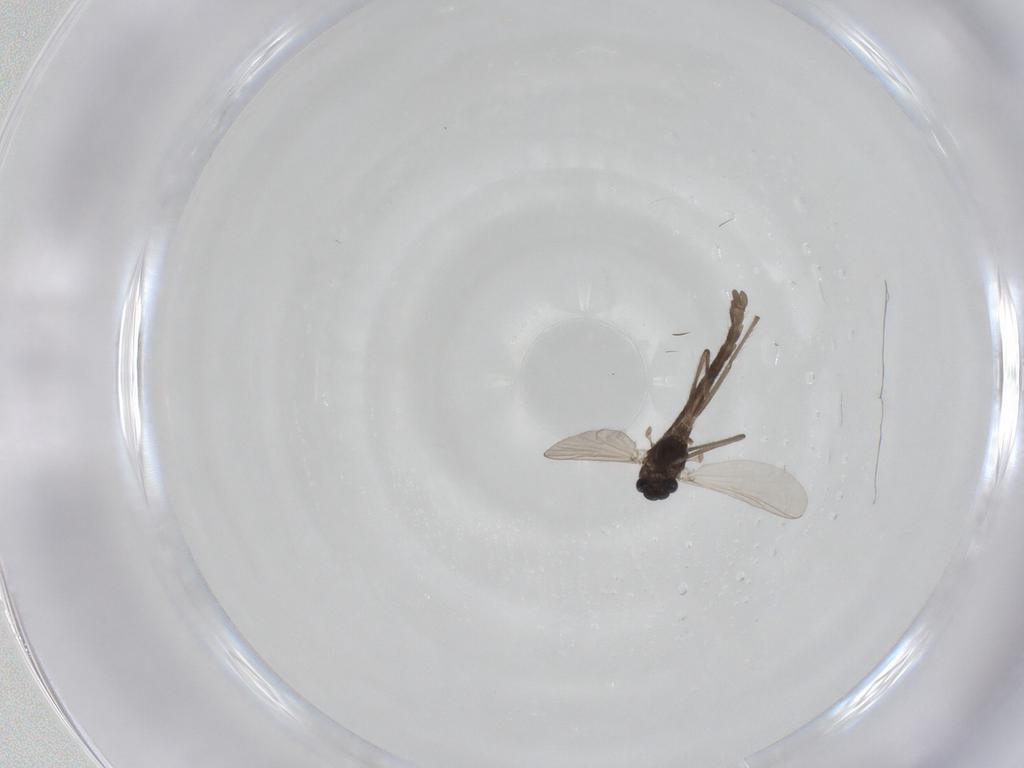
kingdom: Animalia
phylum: Arthropoda
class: Insecta
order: Diptera
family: Chironomidae
